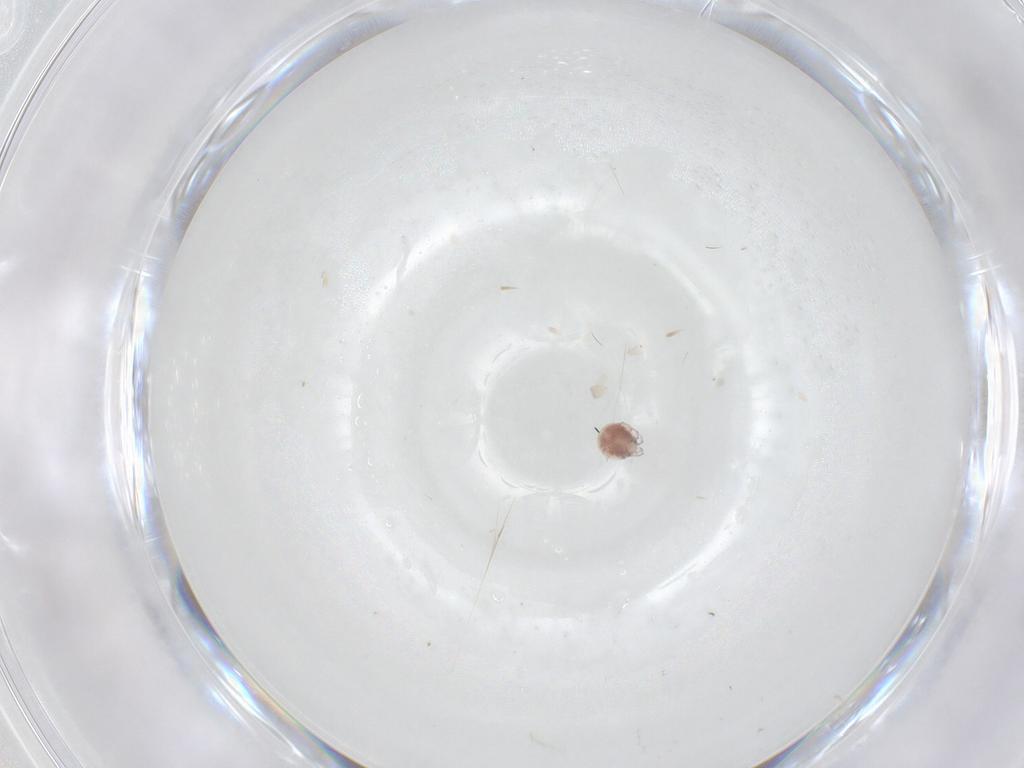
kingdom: Animalia
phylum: Arthropoda
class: Arachnida
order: Trombidiformes
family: Pionidae
